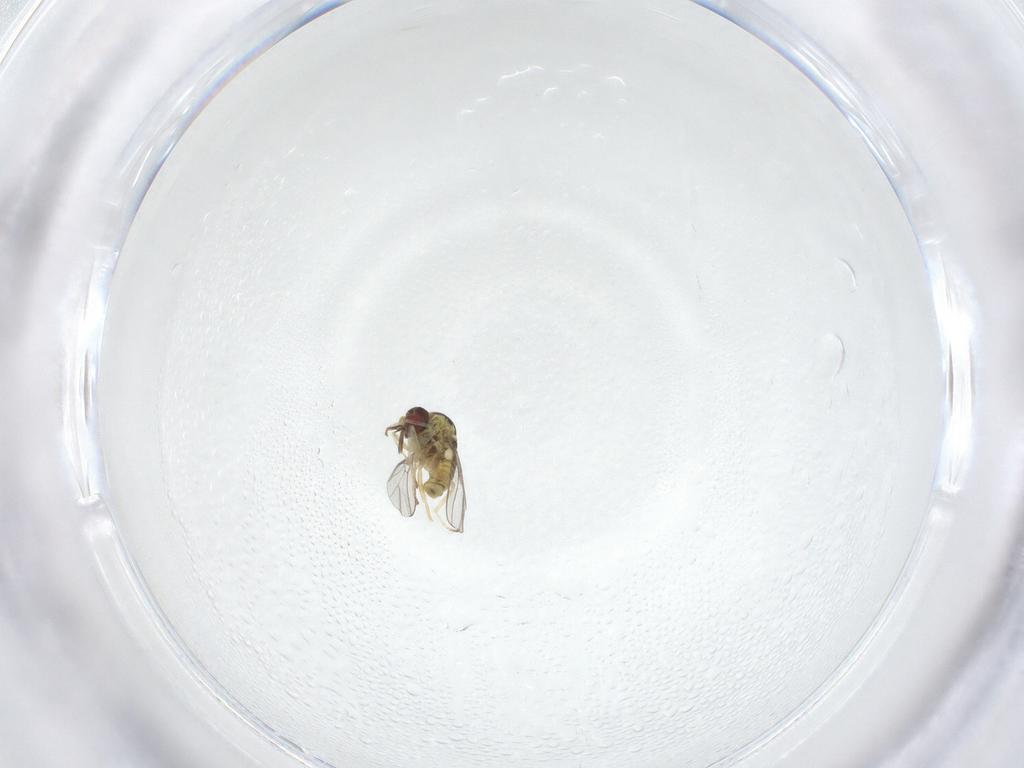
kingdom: Animalia
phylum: Arthropoda
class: Insecta
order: Diptera
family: Mythicomyiidae
